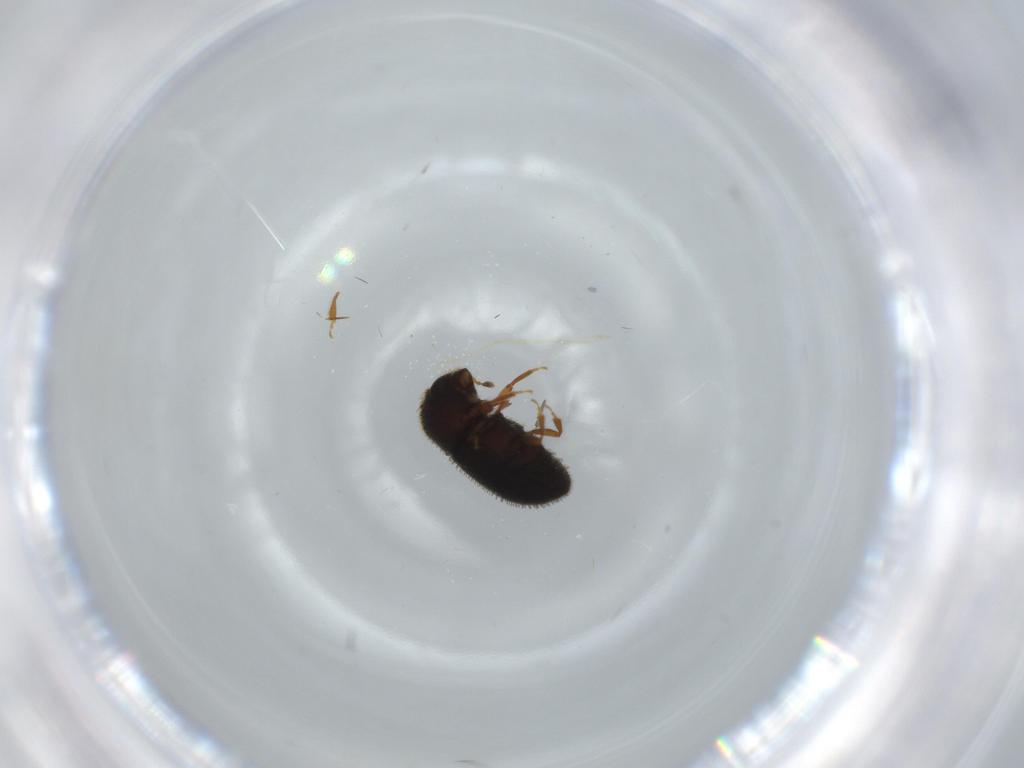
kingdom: Animalia
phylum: Arthropoda
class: Insecta
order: Coleoptera
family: Curculionidae
